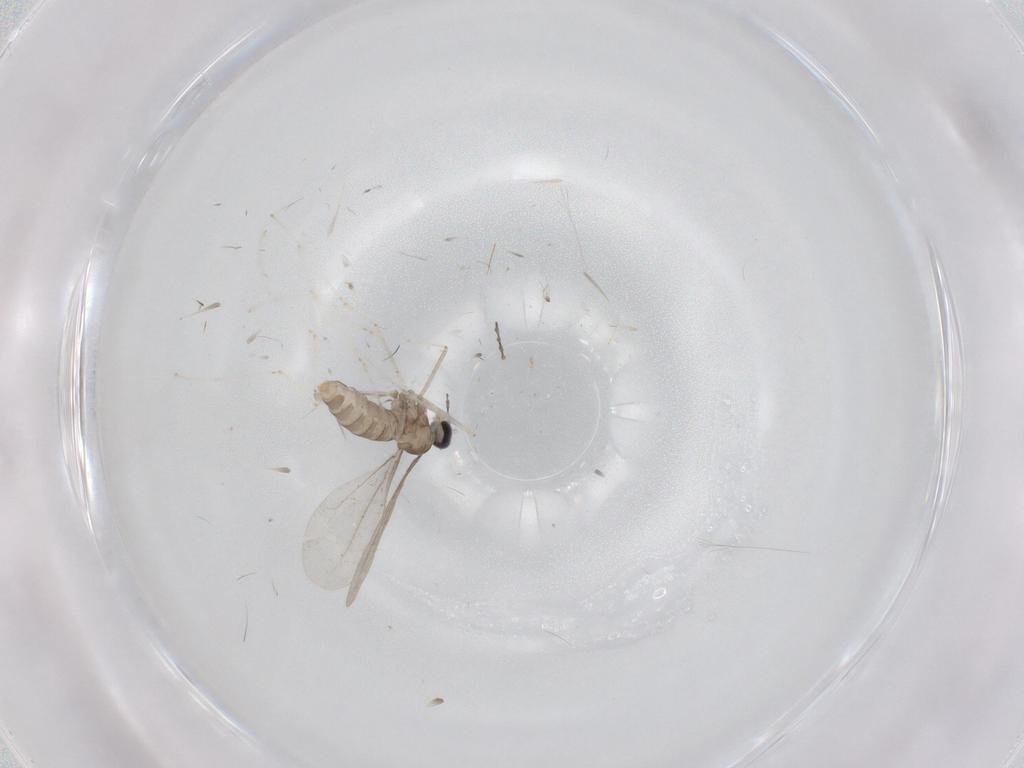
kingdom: Animalia
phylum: Arthropoda
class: Insecta
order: Diptera
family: Cecidomyiidae
